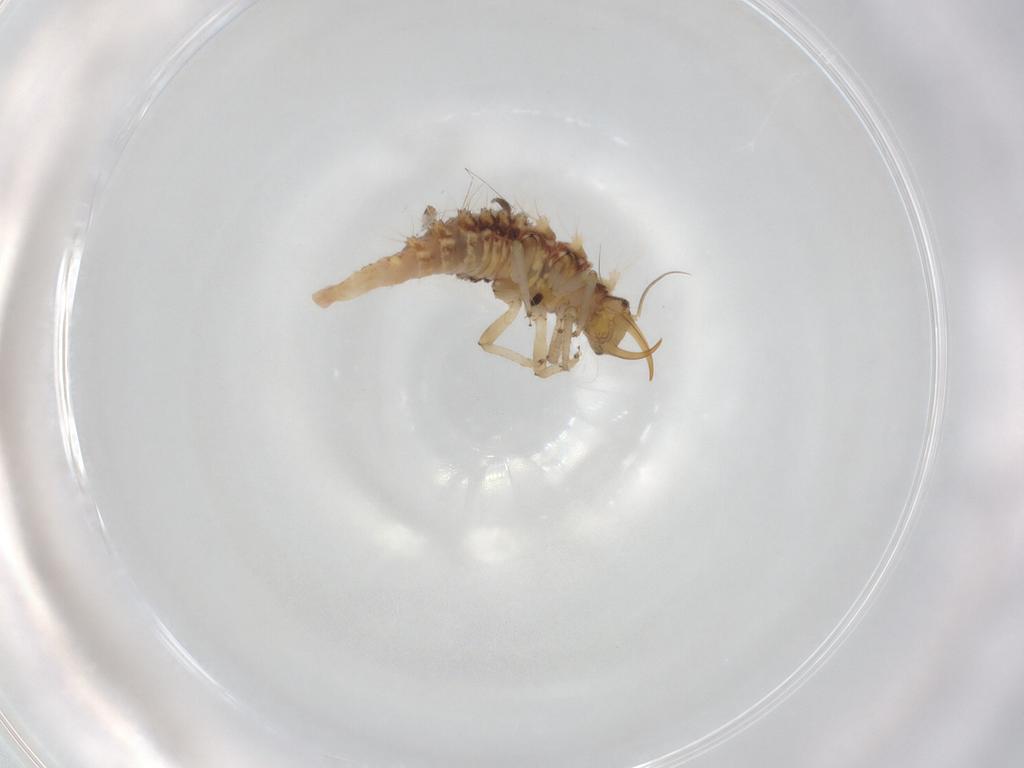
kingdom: Animalia
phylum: Arthropoda
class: Insecta
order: Neuroptera
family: Chrysopidae
